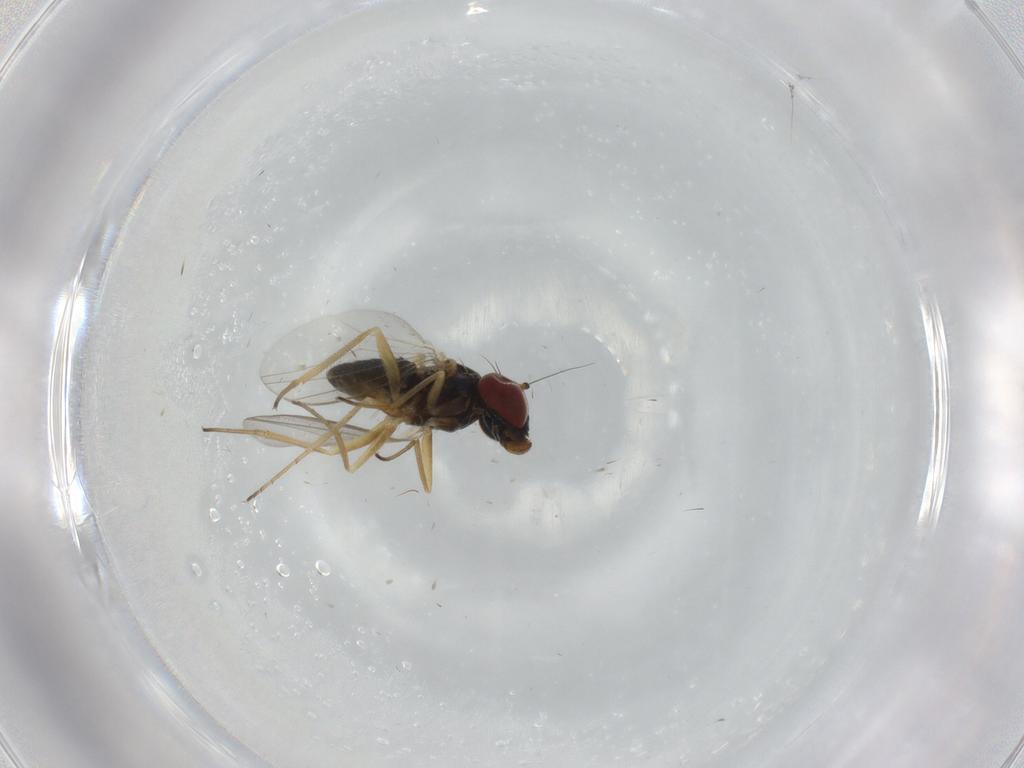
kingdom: Animalia
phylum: Arthropoda
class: Insecta
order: Diptera
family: Dolichopodidae
